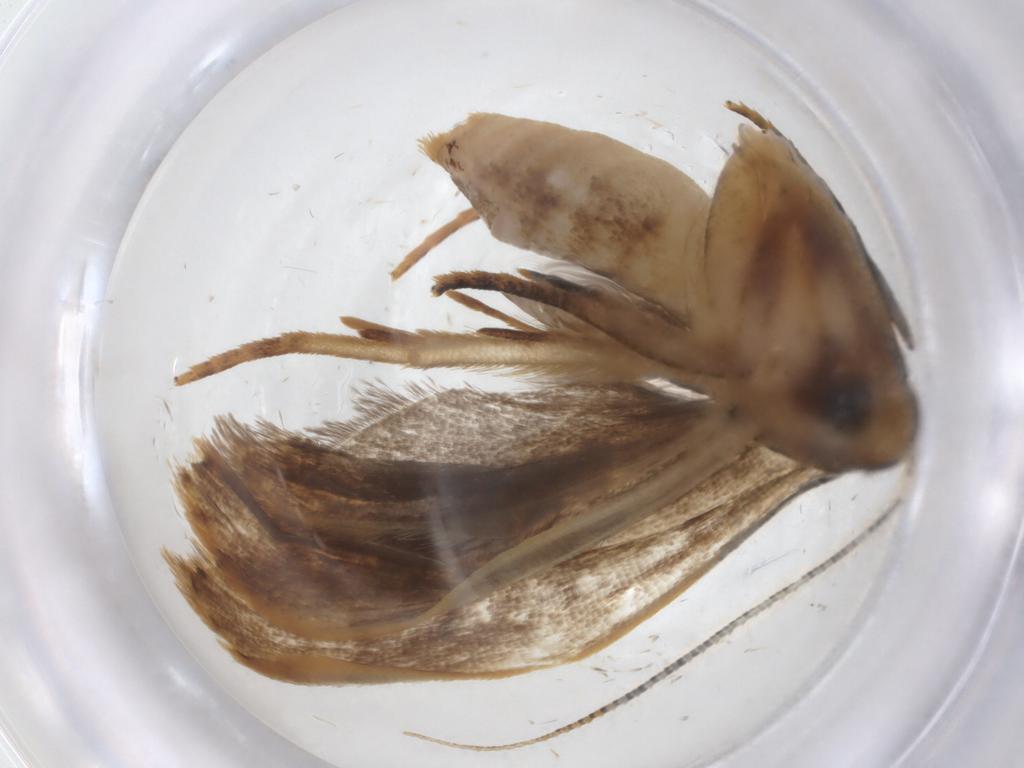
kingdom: Animalia
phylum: Arthropoda
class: Insecta
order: Lepidoptera
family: Gelechiidae
